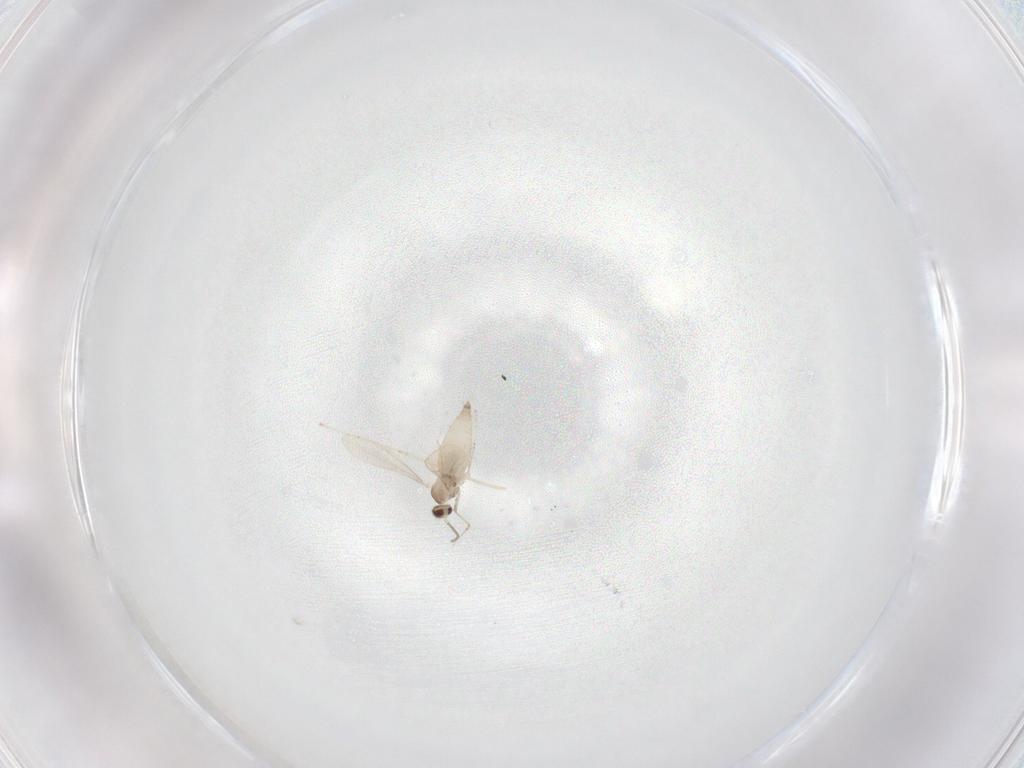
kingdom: Animalia
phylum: Arthropoda
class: Insecta
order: Diptera
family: Cecidomyiidae
